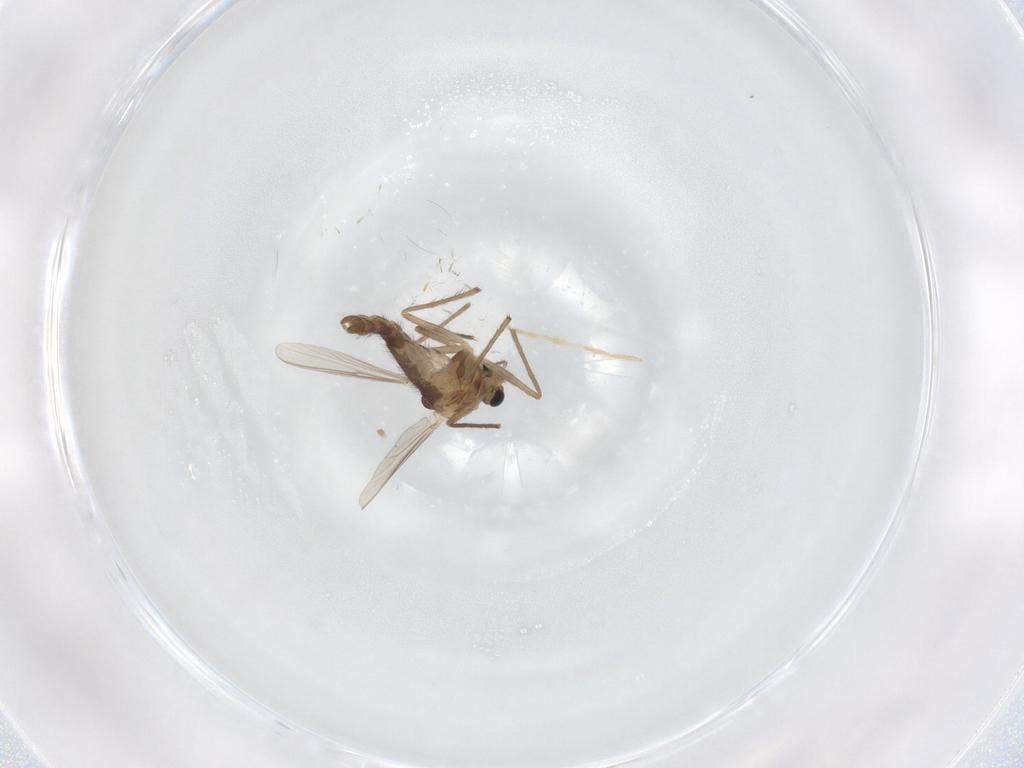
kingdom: Animalia
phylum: Arthropoda
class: Insecta
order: Diptera
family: Chironomidae
